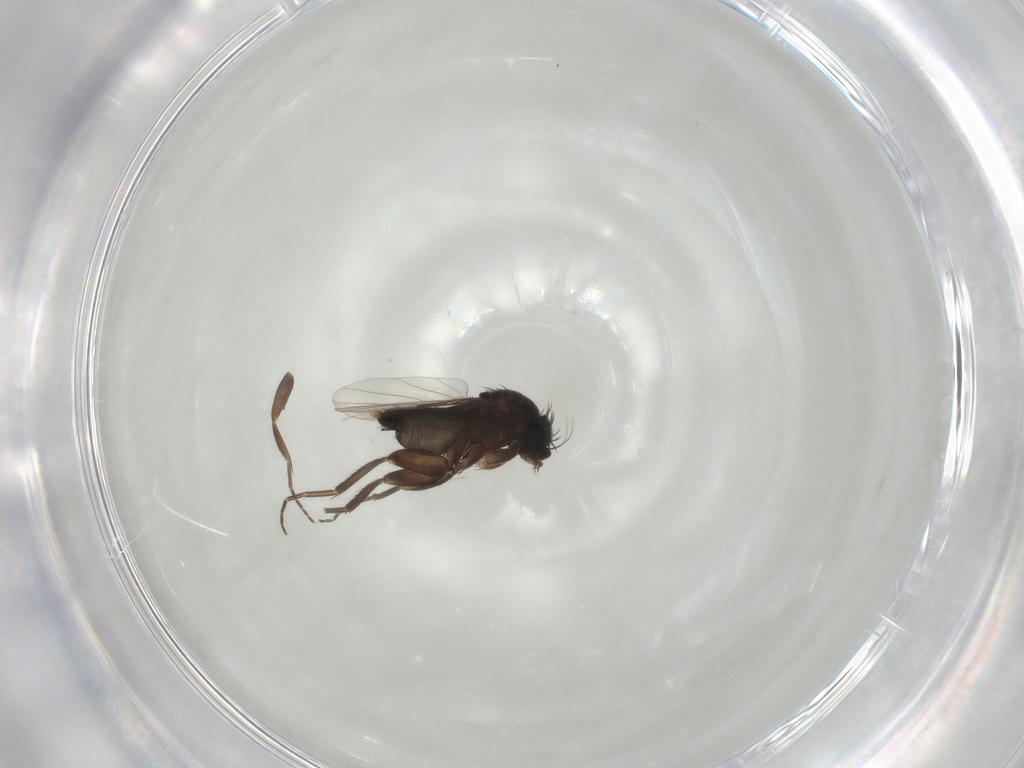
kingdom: Animalia
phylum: Arthropoda
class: Insecta
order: Diptera
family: Phoridae
